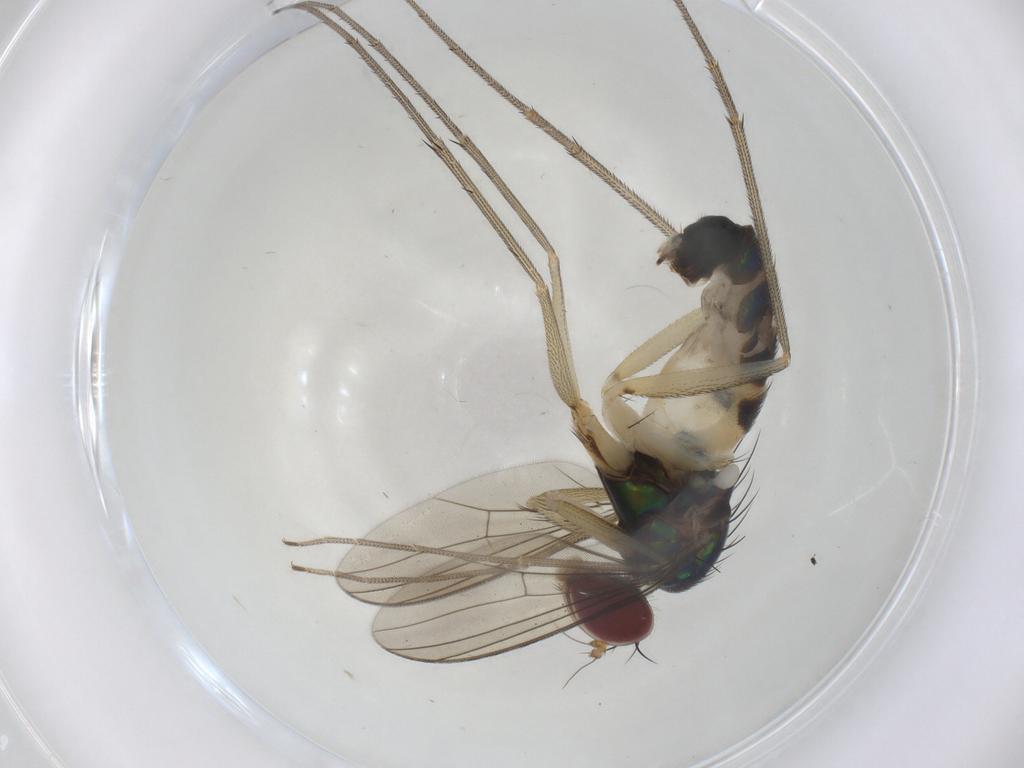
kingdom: Animalia
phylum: Arthropoda
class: Insecta
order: Diptera
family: Dolichopodidae
